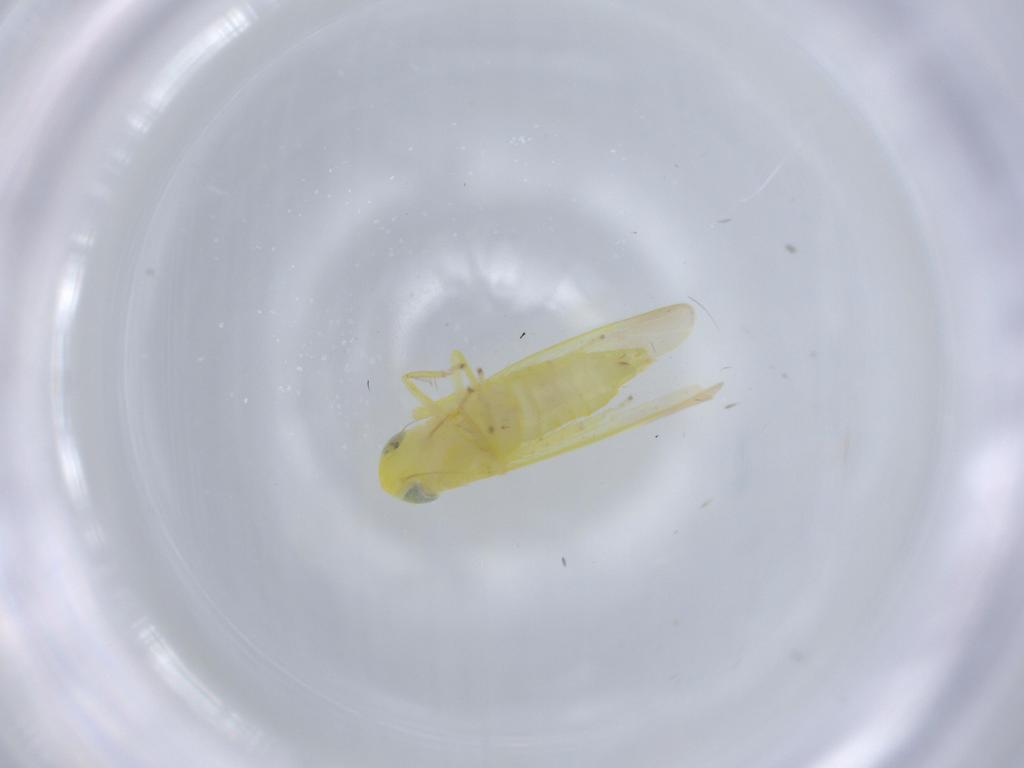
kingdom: Animalia
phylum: Arthropoda
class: Insecta
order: Hemiptera
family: Cicadellidae
